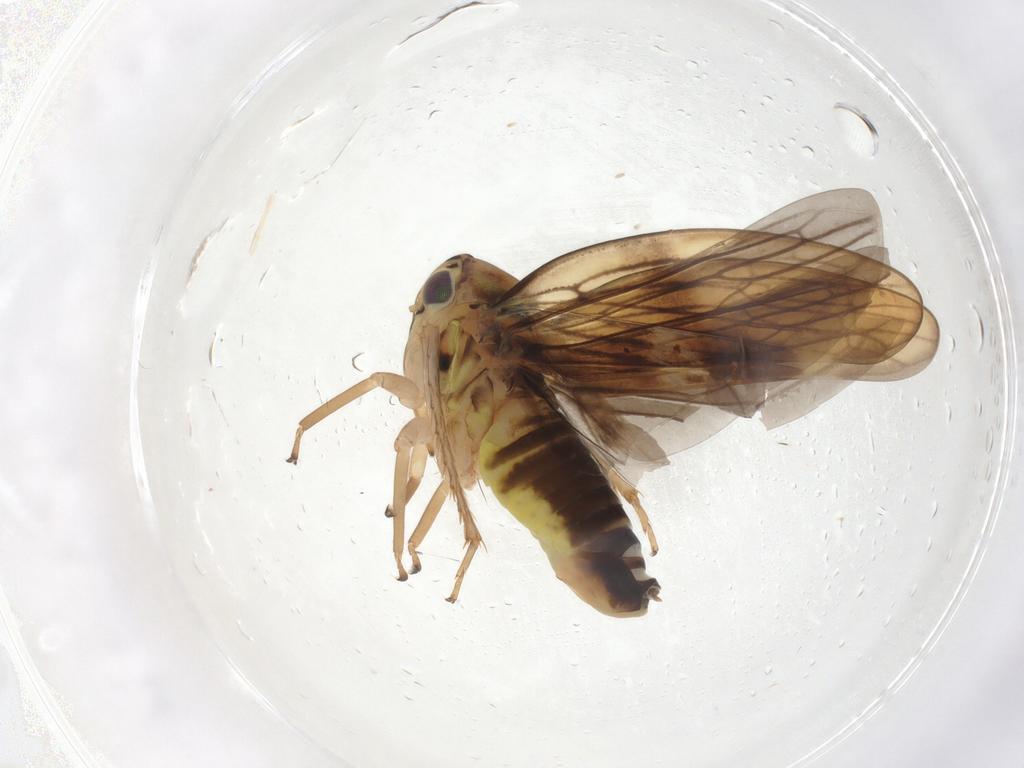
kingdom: Animalia
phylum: Arthropoda
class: Insecta
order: Hemiptera
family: Cicadellidae
